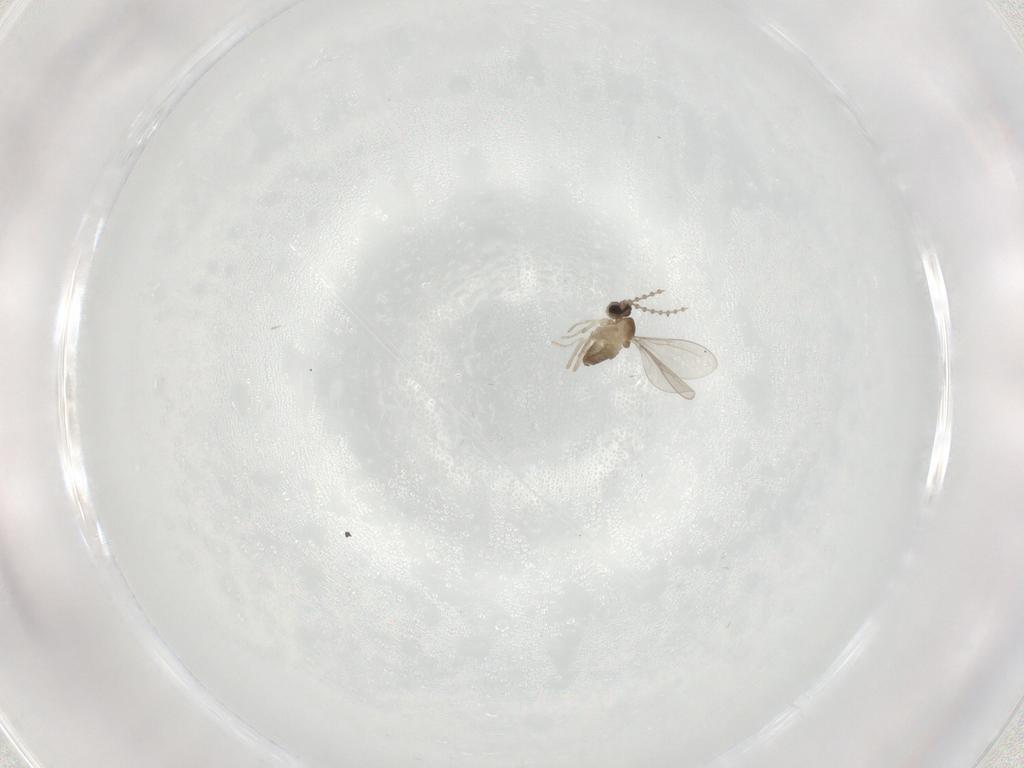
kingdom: Animalia
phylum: Arthropoda
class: Insecta
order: Diptera
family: Cecidomyiidae
